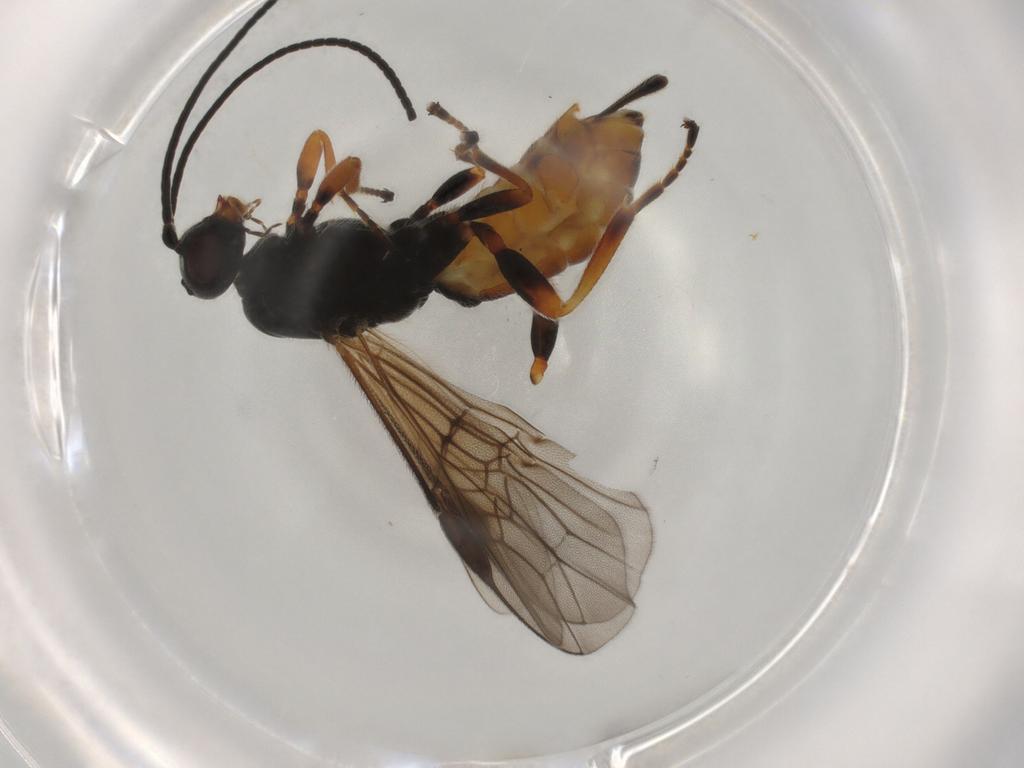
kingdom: Animalia
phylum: Arthropoda
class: Insecta
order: Hymenoptera
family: Braconidae
